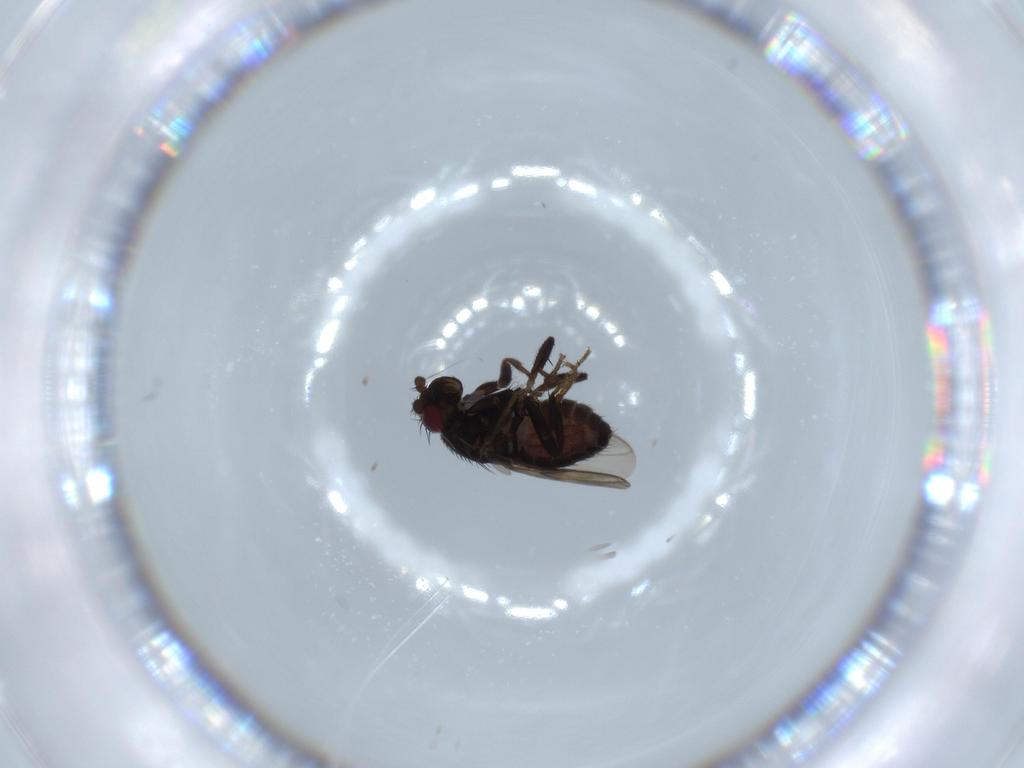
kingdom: Animalia
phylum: Arthropoda
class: Insecta
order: Diptera
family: Sphaeroceridae
